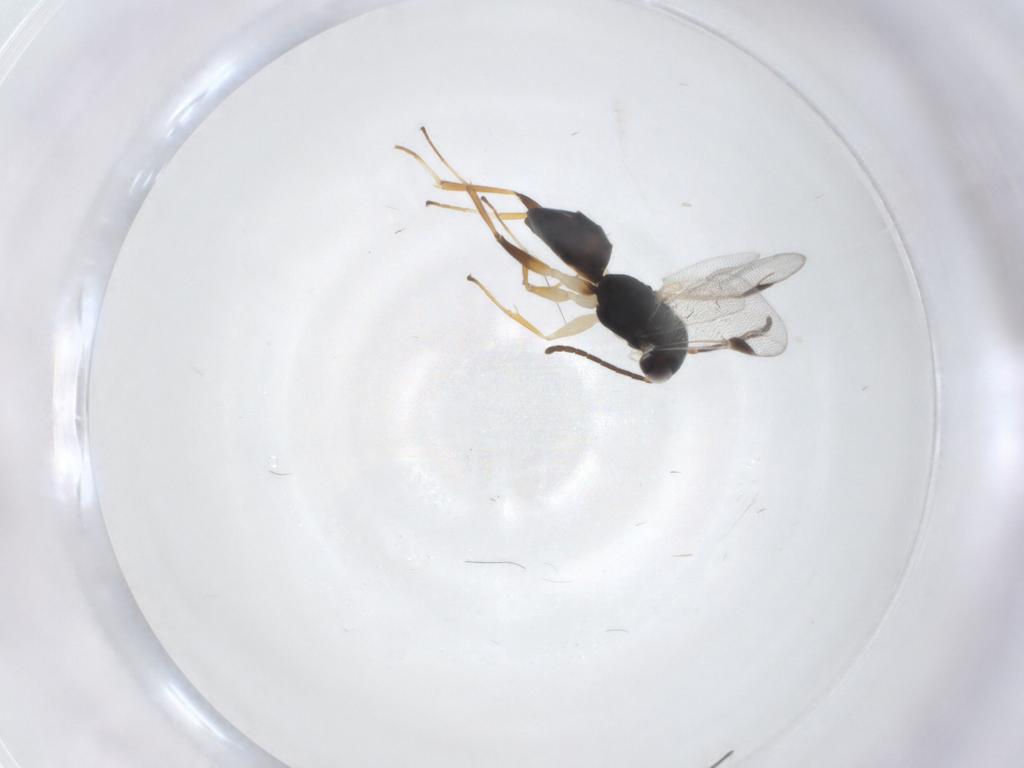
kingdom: Animalia
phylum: Arthropoda
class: Insecta
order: Hymenoptera
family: Dryinidae
